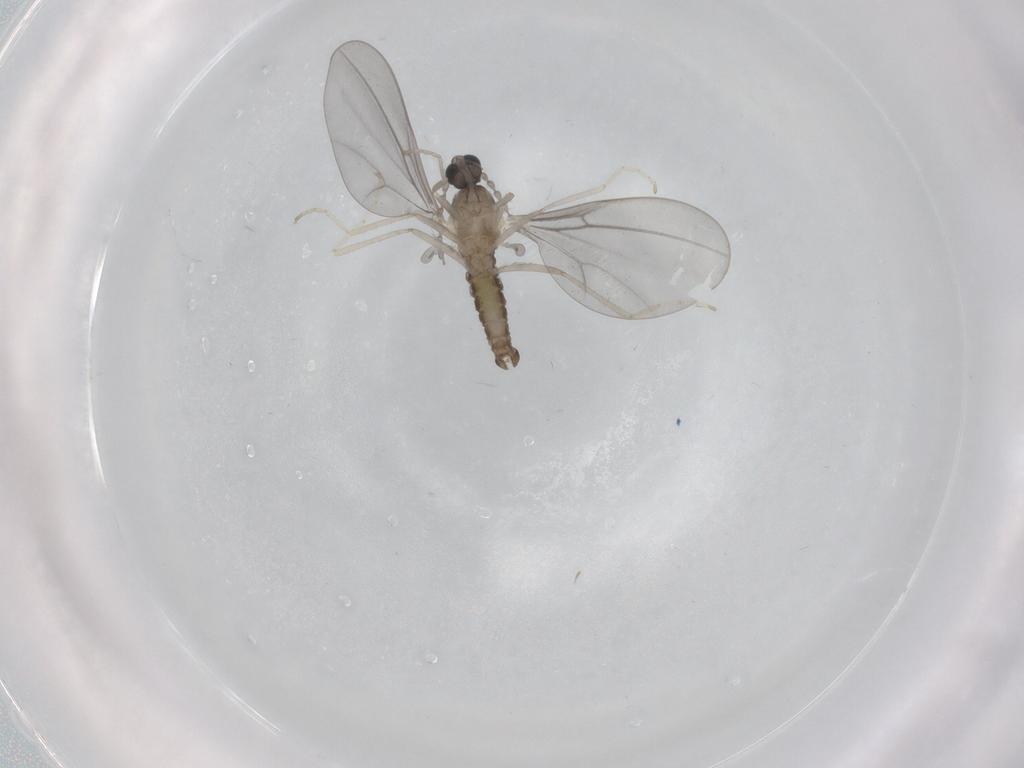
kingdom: Animalia
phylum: Arthropoda
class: Insecta
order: Diptera
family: Cecidomyiidae
